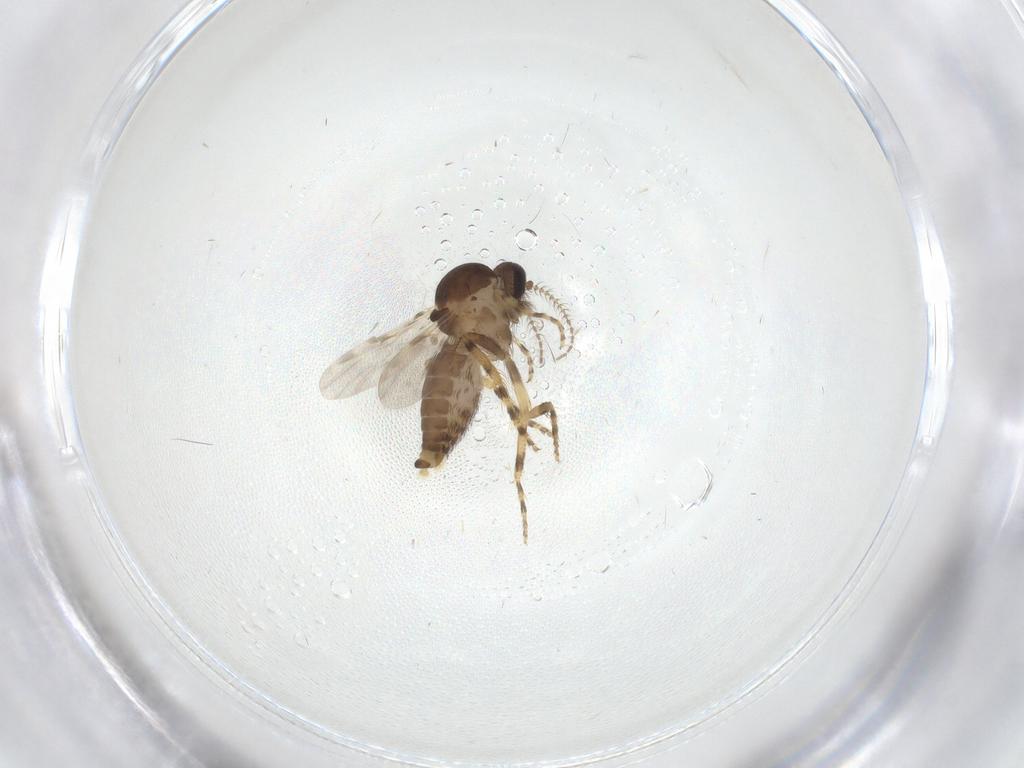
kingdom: Animalia
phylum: Arthropoda
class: Insecta
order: Diptera
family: Ceratopogonidae
